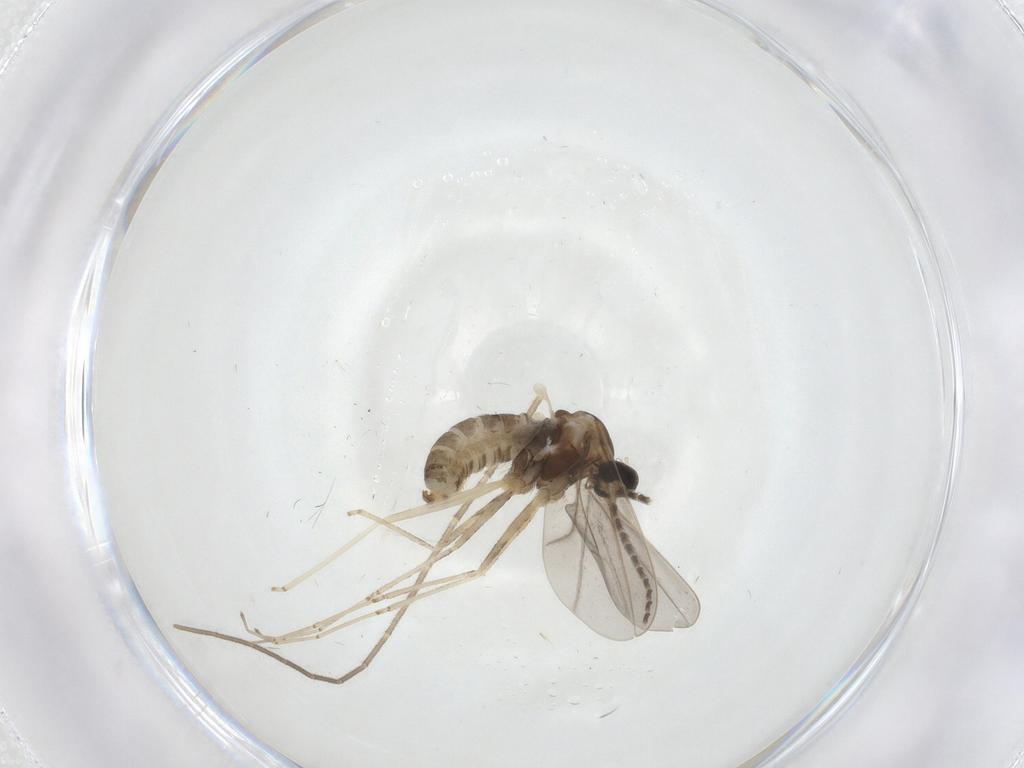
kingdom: Animalia
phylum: Arthropoda
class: Insecta
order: Diptera
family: Cecidomyiidae
